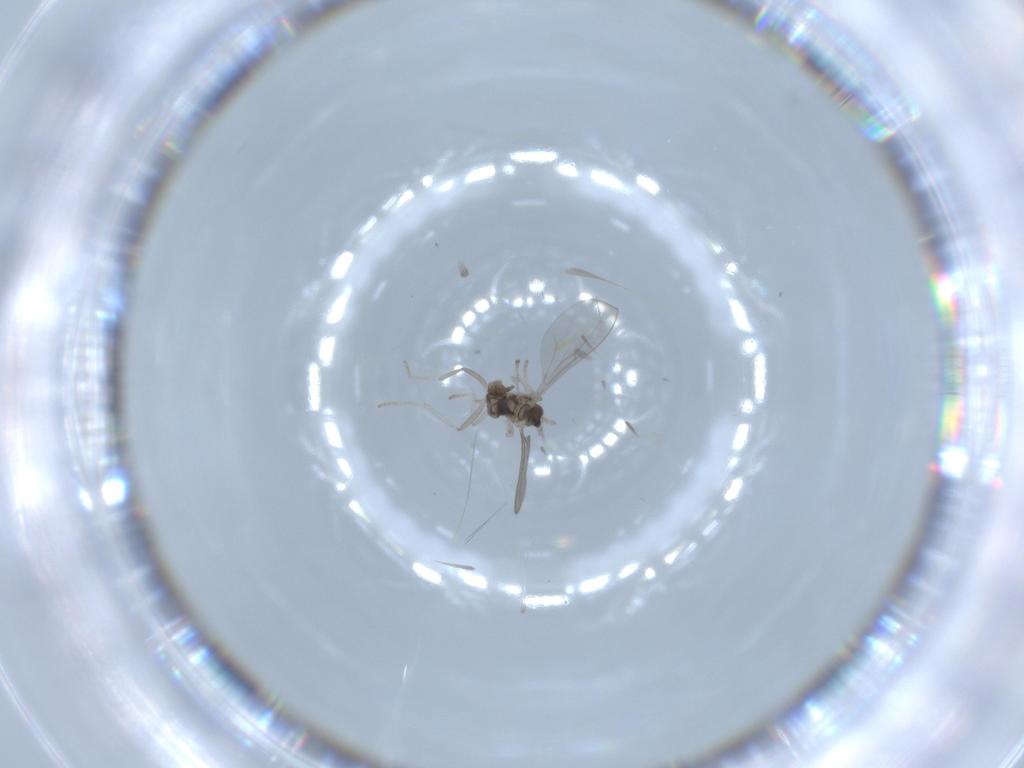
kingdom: Animalia
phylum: Arthropoda
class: Insecta
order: Diptera
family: Cecidomyiidae
